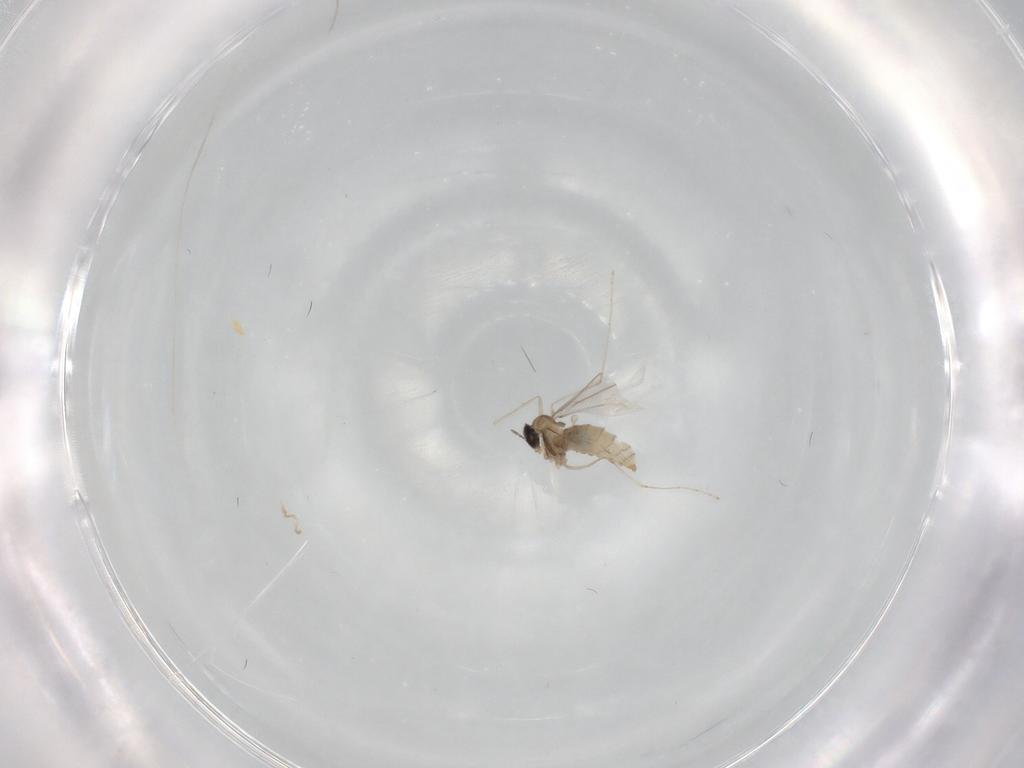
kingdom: Animalia
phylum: Arthropoda
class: Insecta
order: Diptera
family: Cecidomyiidae
